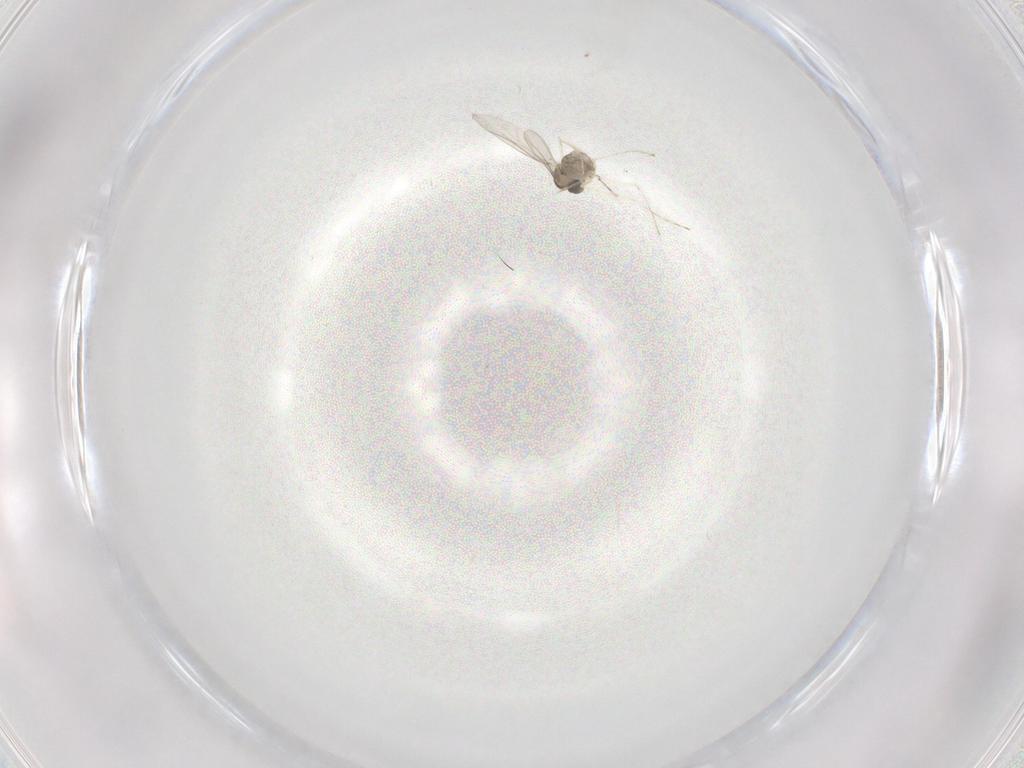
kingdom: Animalia
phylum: Arthropoda
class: Insecta
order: Diptera
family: Cecidomyiidae
